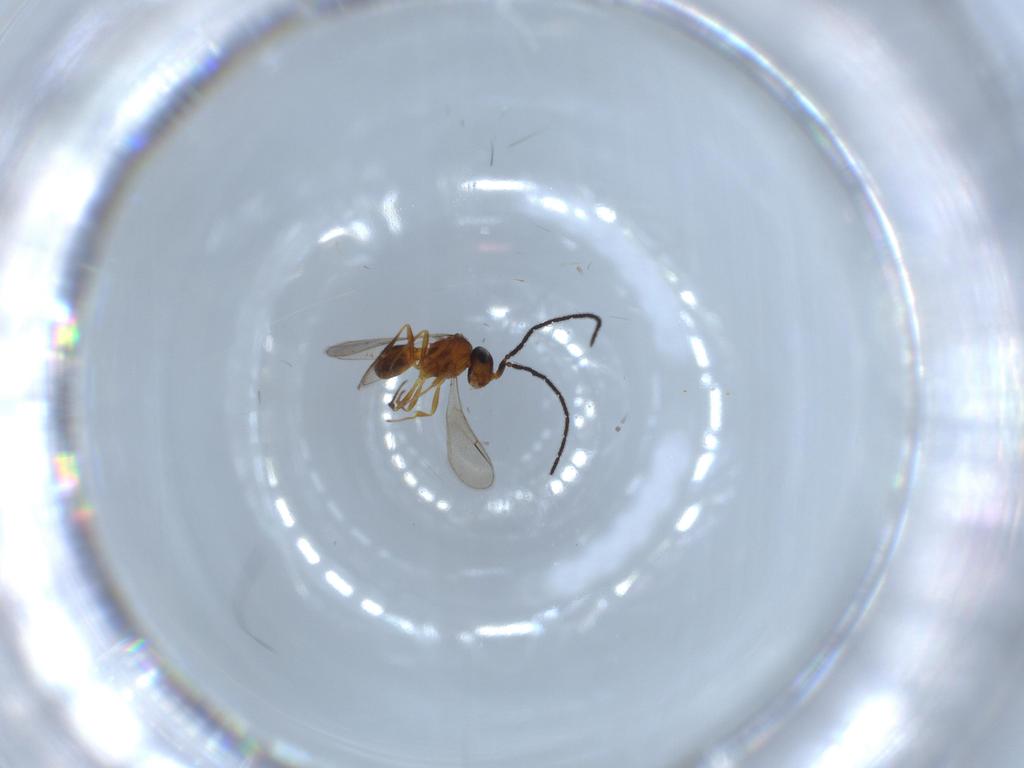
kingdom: Animalia
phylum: Arthropoda
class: Insecta
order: Hymenoptera
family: Scelionidae
